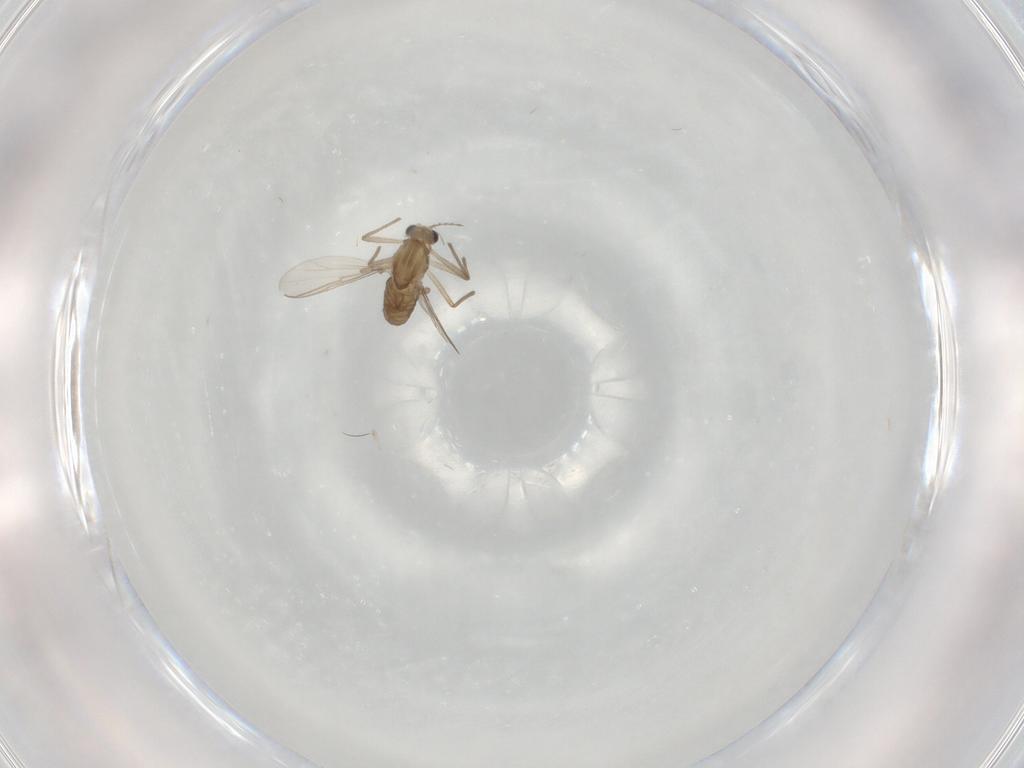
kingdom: Animalia
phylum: Arthropoda
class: Insecta
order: Diptera
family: Chironomidae
